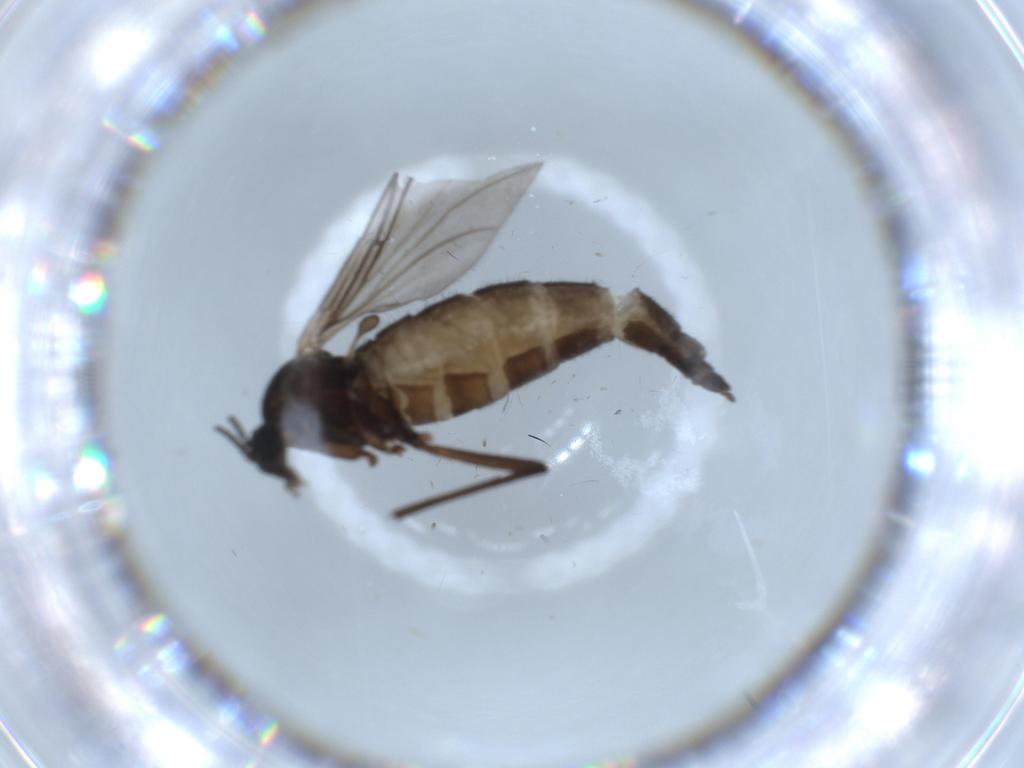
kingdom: Animalia
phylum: Arthropoda
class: Insecta
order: Diptera
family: Sciaridae
